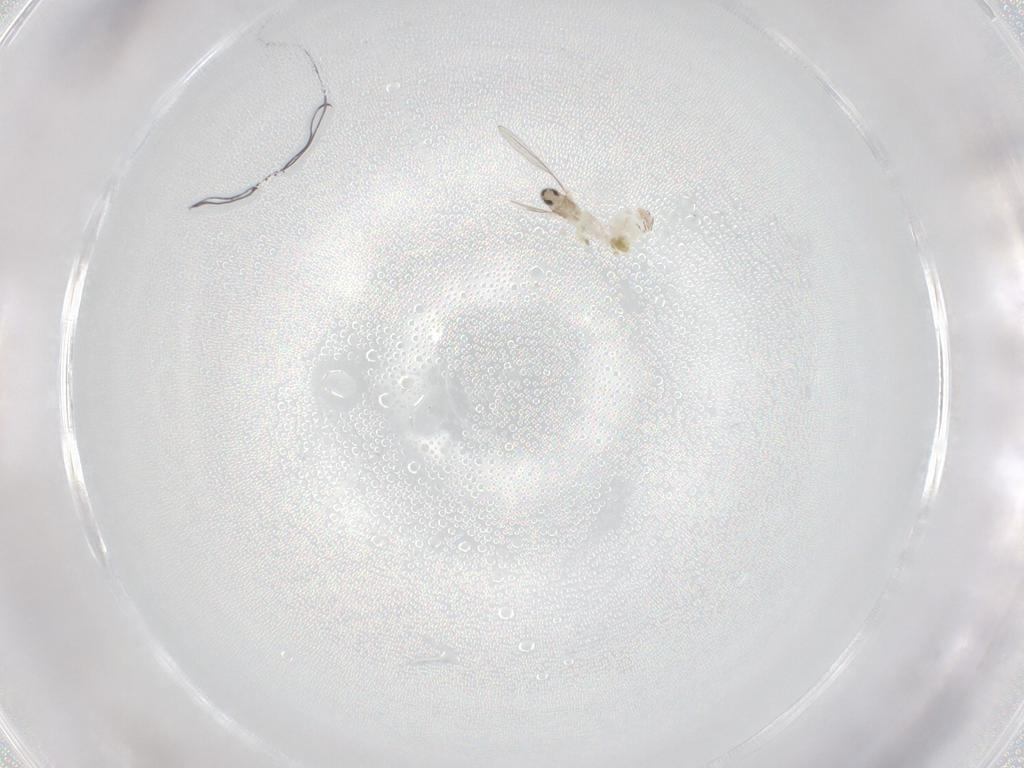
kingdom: Animalia
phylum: Arthropoda
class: Insecta
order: Diptera
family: Cecidomyiidae
